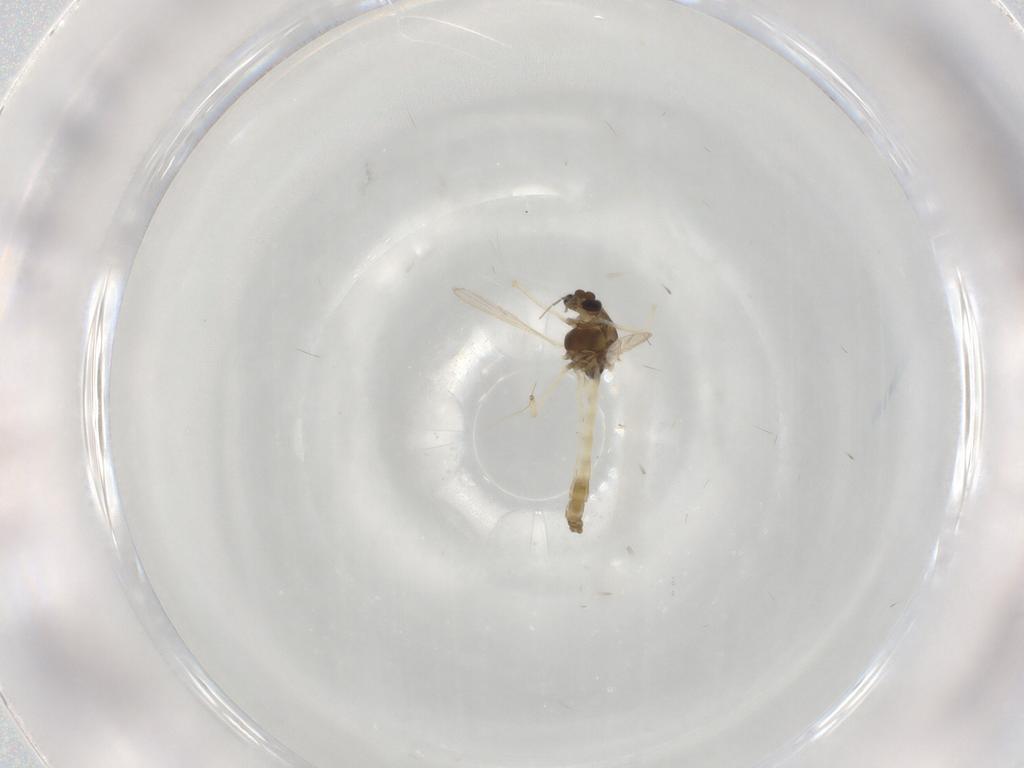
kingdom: Animalia
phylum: Arthropoda
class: Insecta
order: Diptera
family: Chironomidae
